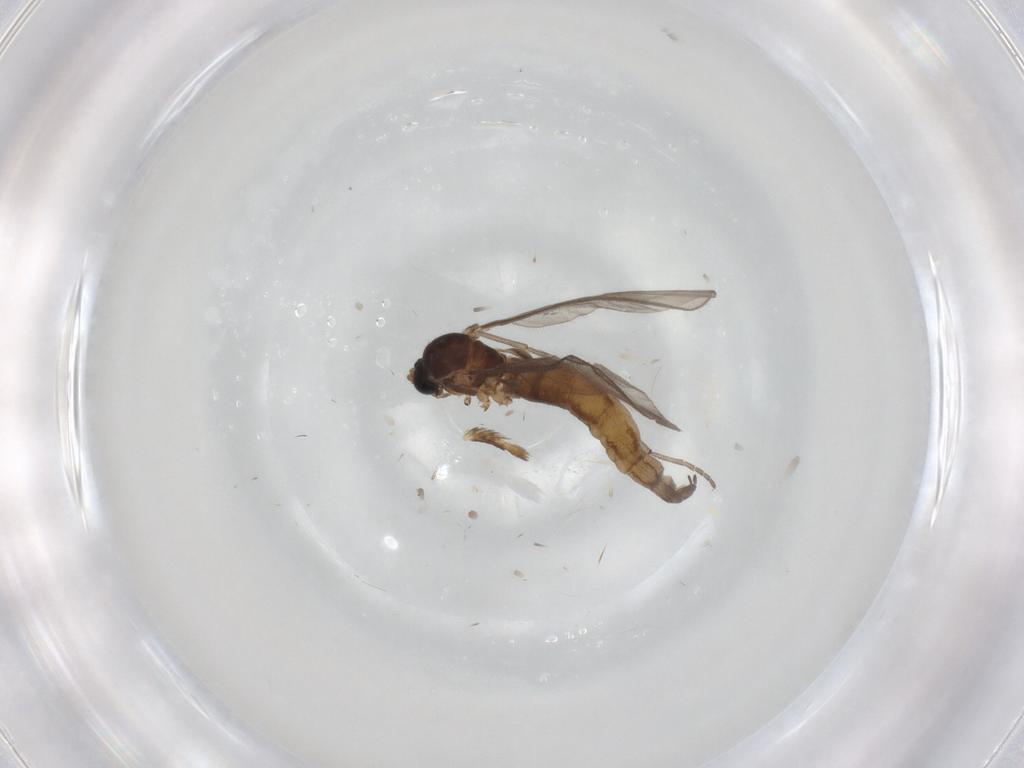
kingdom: Animalia
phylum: Arthropoda
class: Insecta
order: Diptera
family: Sciaridae
